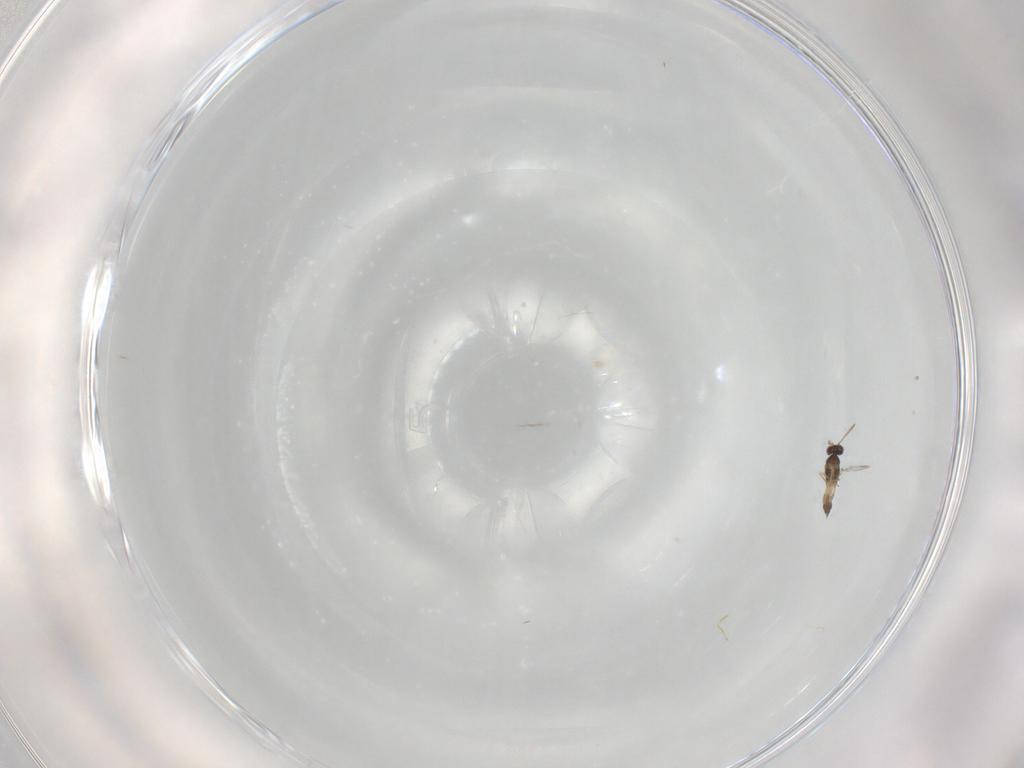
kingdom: Animalia
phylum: Arthropoda
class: Insecta
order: Hymenoptera
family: Mymaridae
